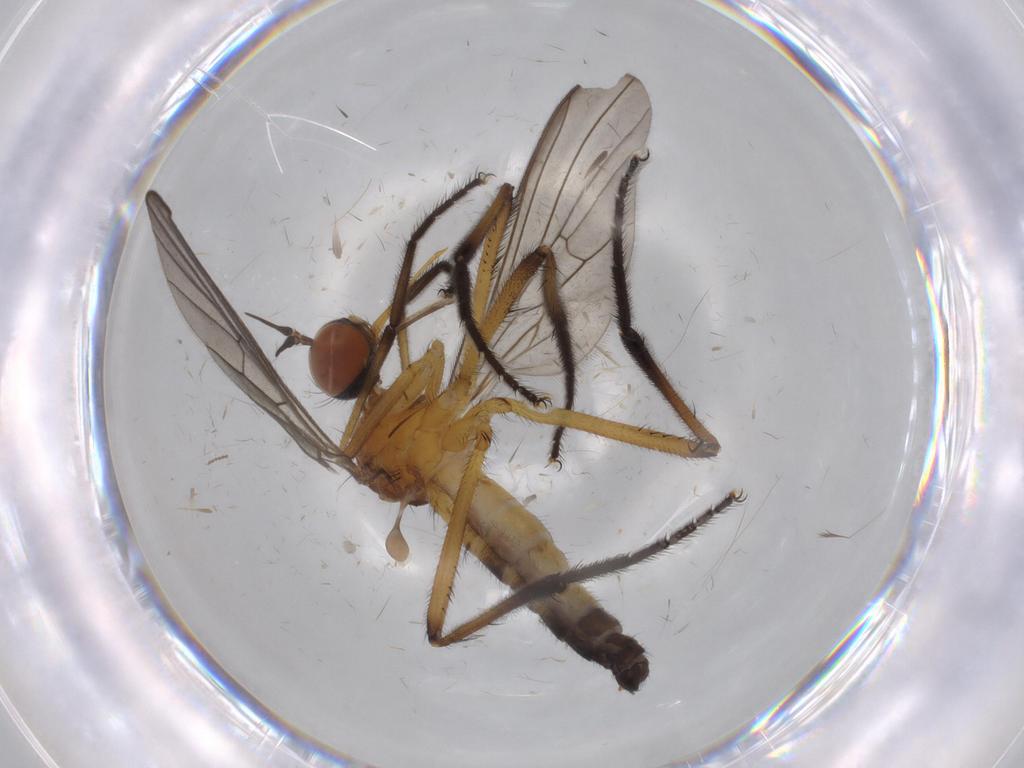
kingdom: Animalia
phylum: Arthropoda
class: Insecta
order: Diptera
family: Empididae
